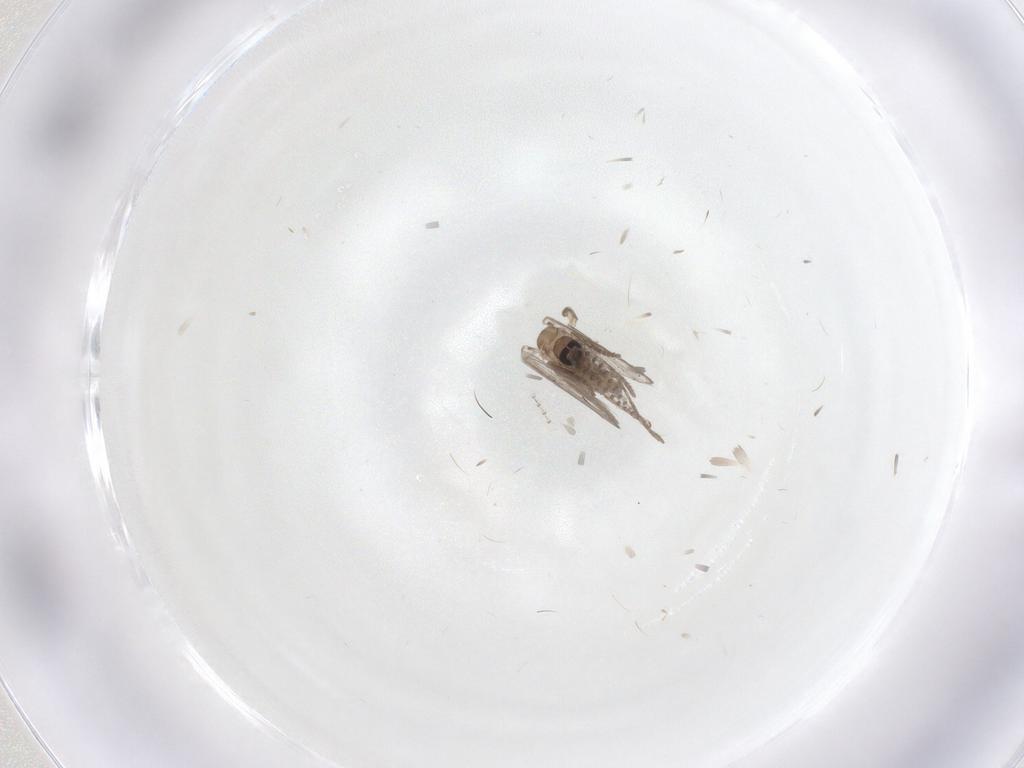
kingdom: Animalia
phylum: Arthropoda
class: Insecta
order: Diptera
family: Psychodidae
